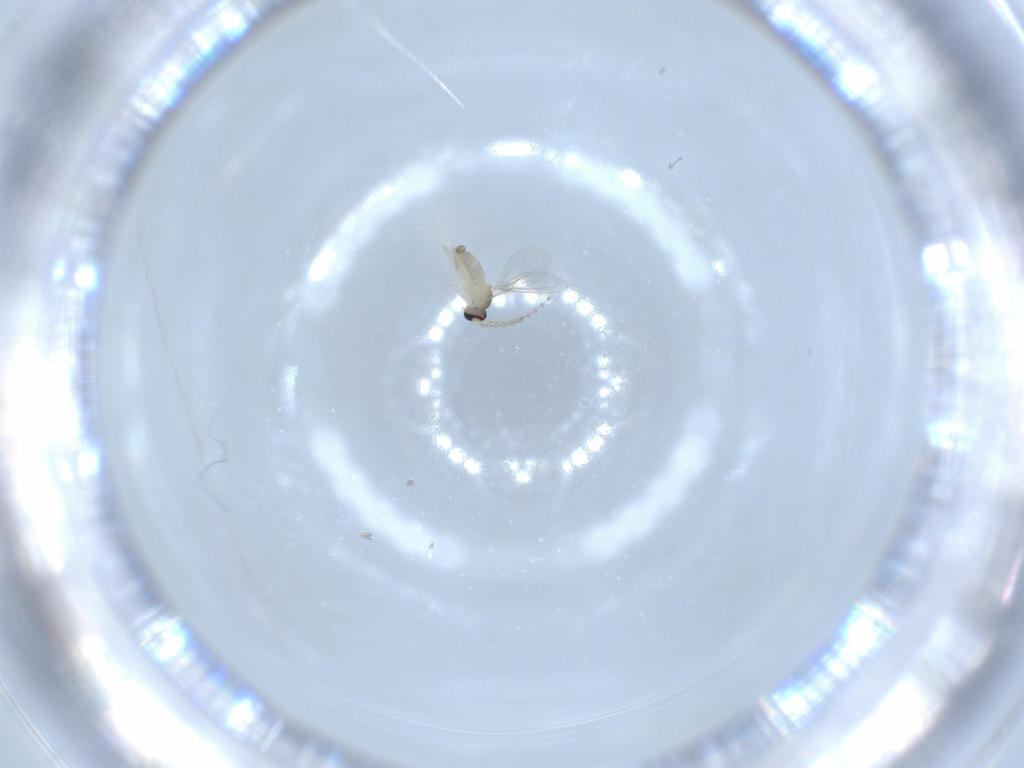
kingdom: Animalia
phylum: Arthropoda
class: Insecta
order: Diptera
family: Cecidomyiidae
